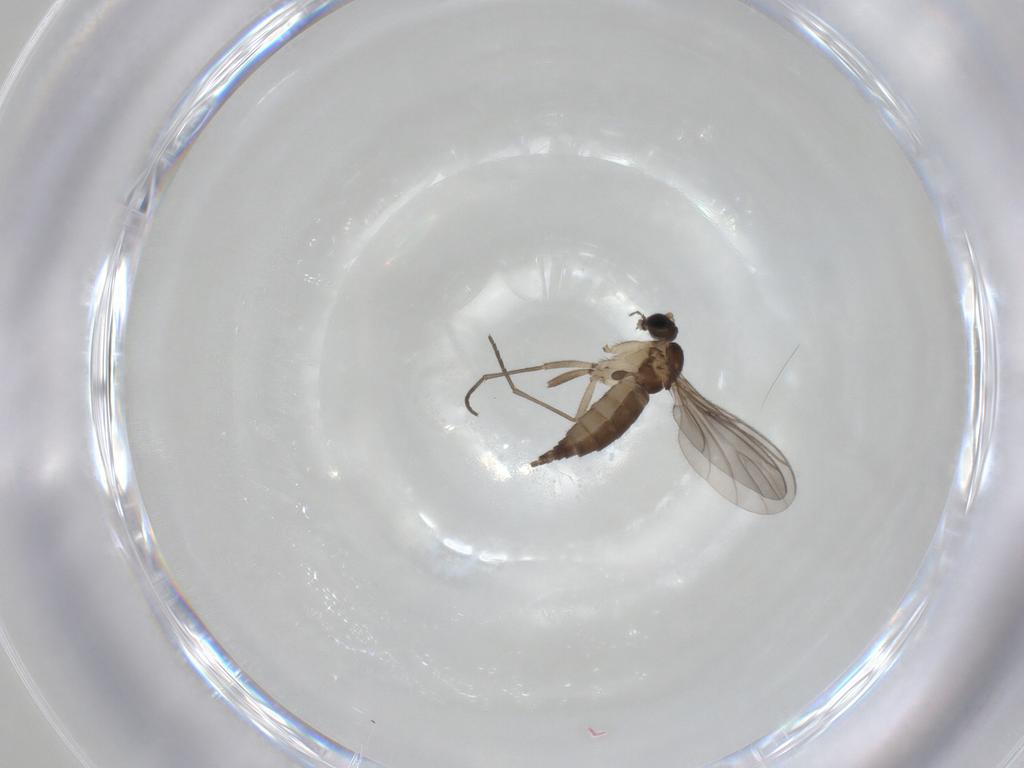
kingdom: Animalia
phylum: Arthropoda
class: Insecta
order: Diptera
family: Sciaridae
